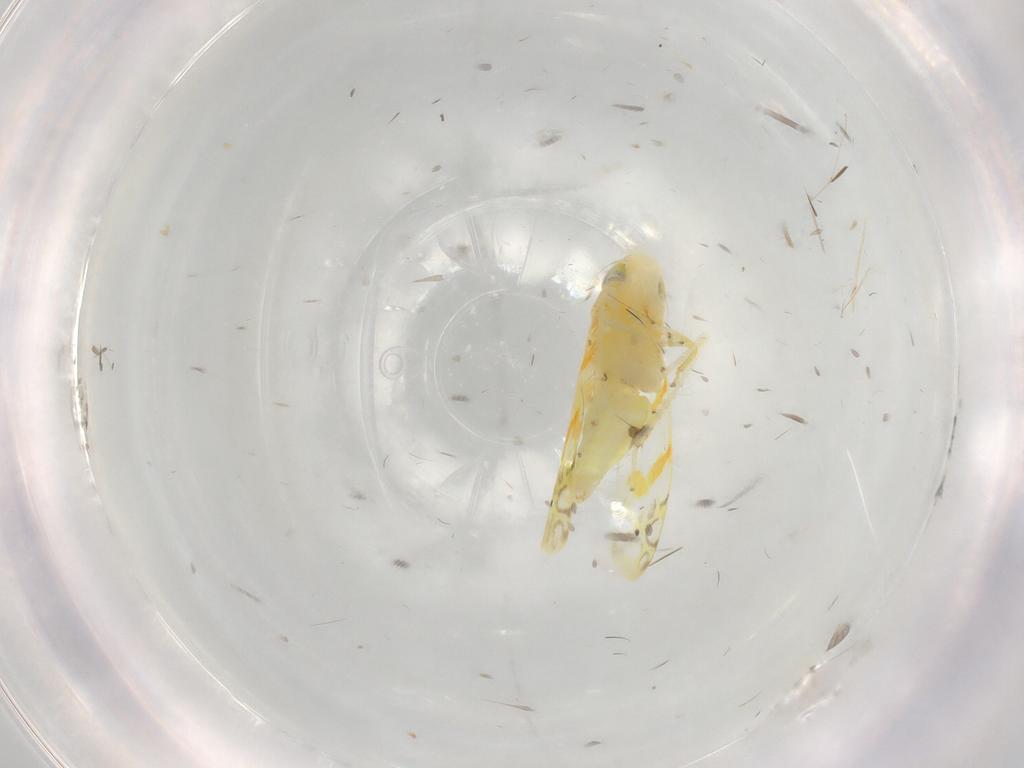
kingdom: Animalia
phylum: Arthropoda
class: Insecta
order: Hemiptera
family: Cicadellidae
